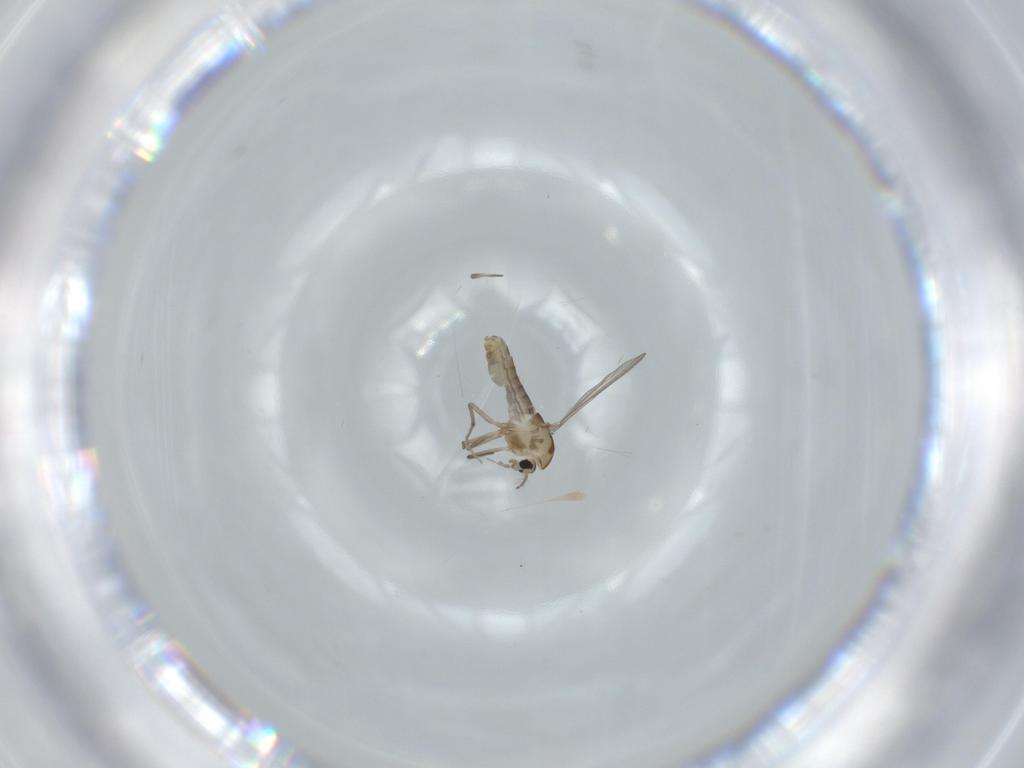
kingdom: Animalia
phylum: Arthropoda
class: Insecta
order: Diptera
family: Chironomidae
